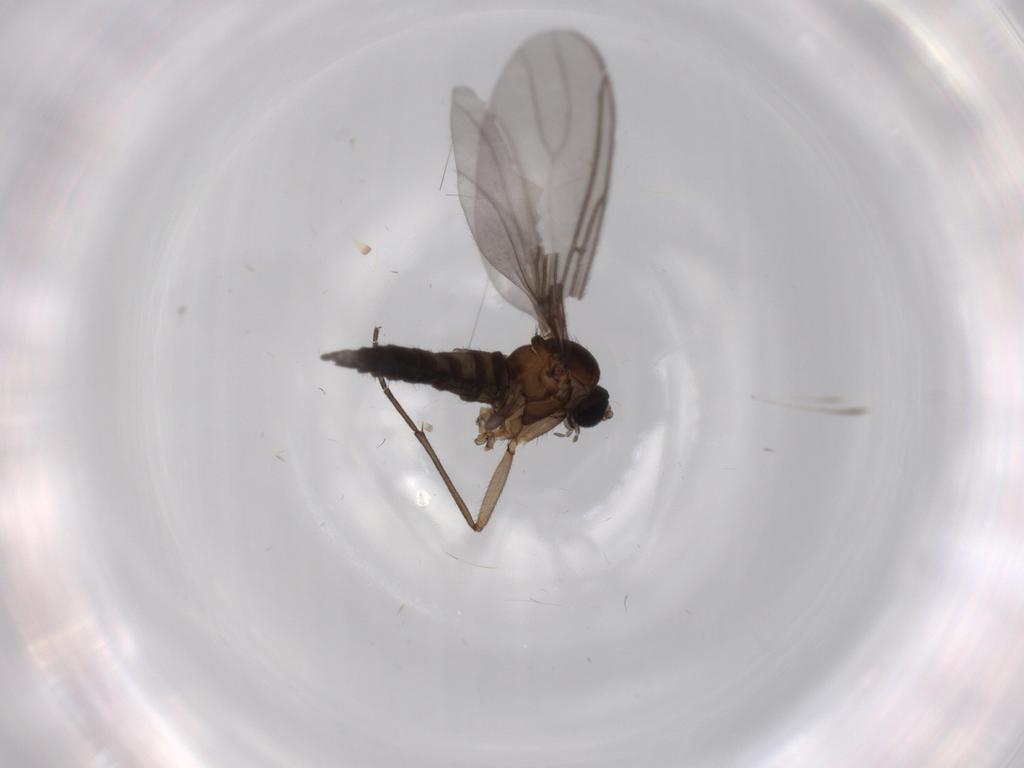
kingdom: Animalia
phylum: Arthropoda
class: Insecta
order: Diptera
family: Sciaridae
